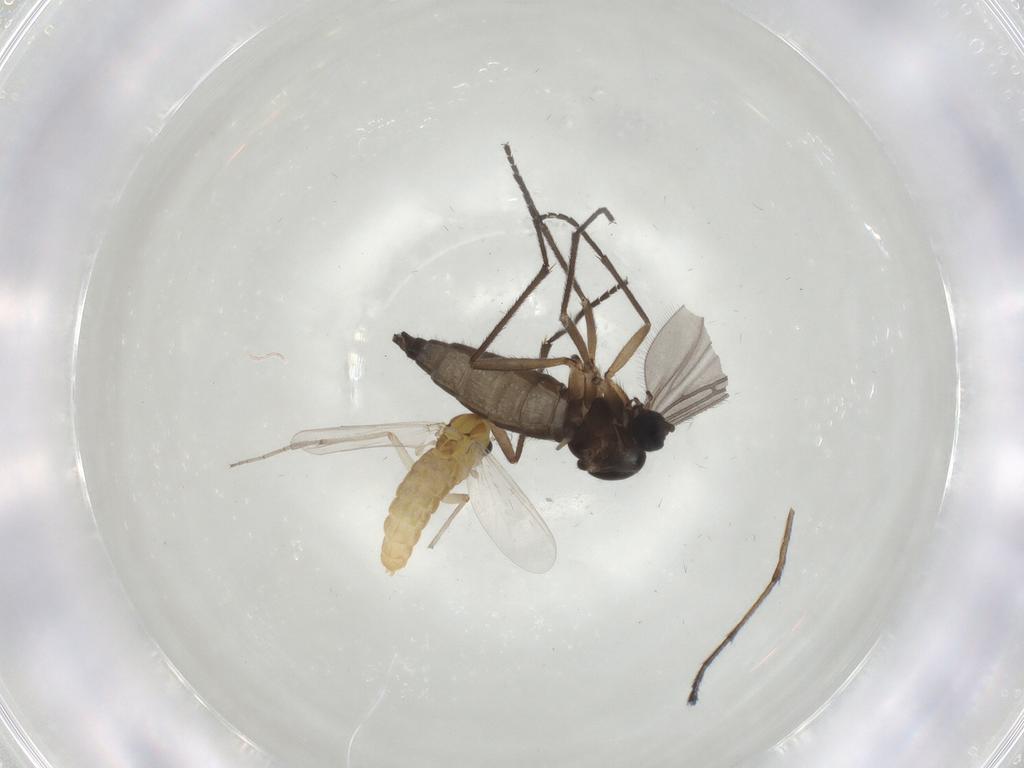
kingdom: Animalia
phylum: Arthropoda
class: Insecta
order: Diptera
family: Chironomidae
